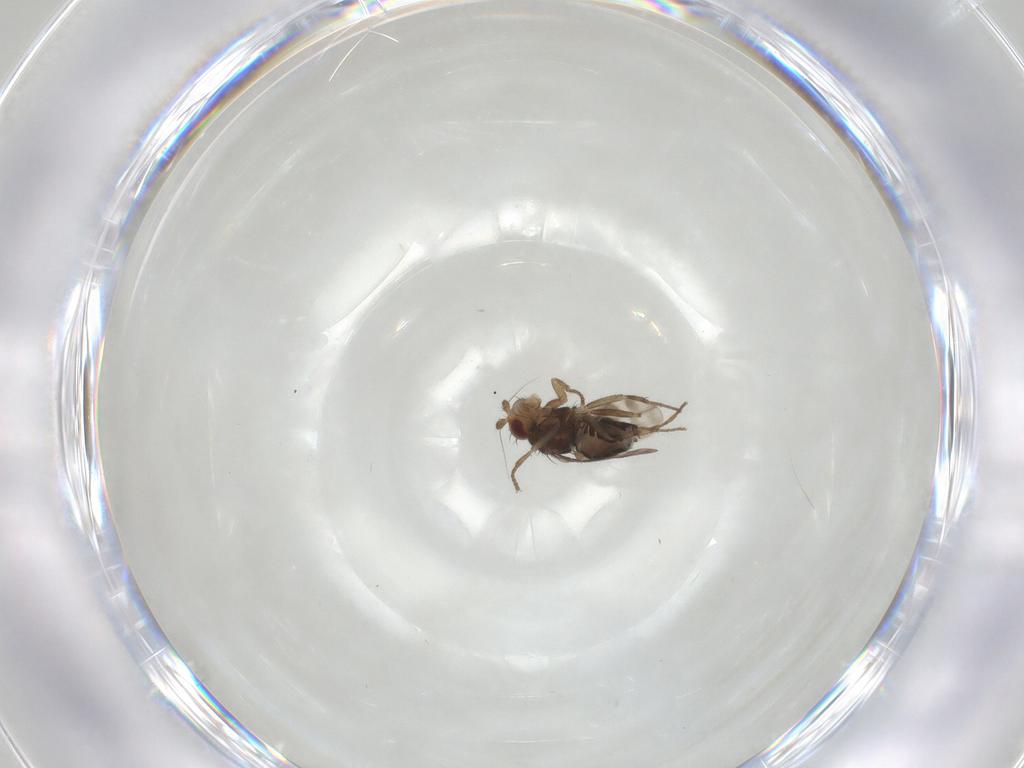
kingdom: Animalia
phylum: Arthropoda
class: Insecta
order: Diptera
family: Sphaeroceridae
